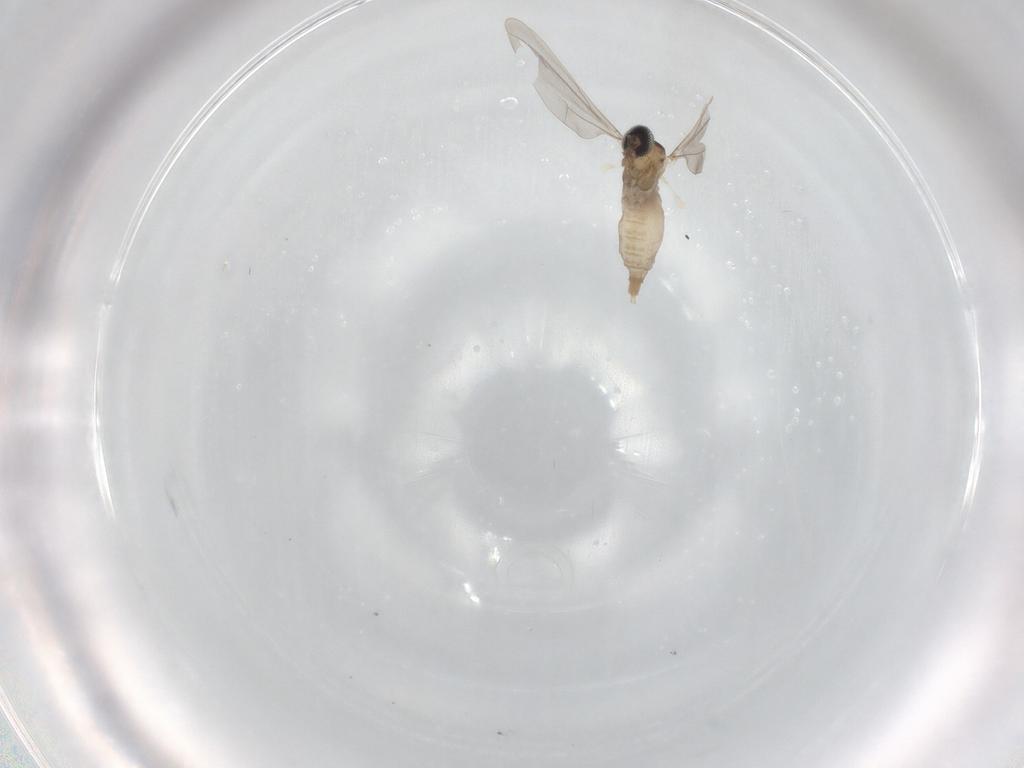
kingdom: Animalia
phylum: Arthropoda
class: Insecta
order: Diptera
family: Cecidomyiidae
